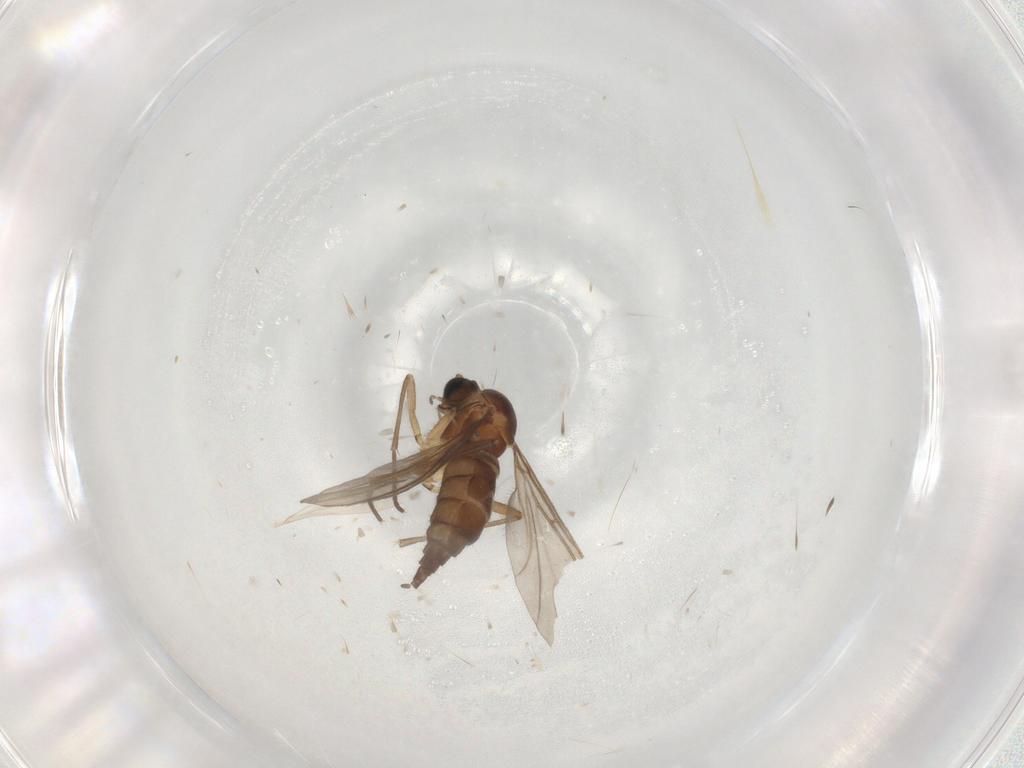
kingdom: Animalia
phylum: Arthropoda
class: Insecta
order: Diptera
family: Sciaridae
